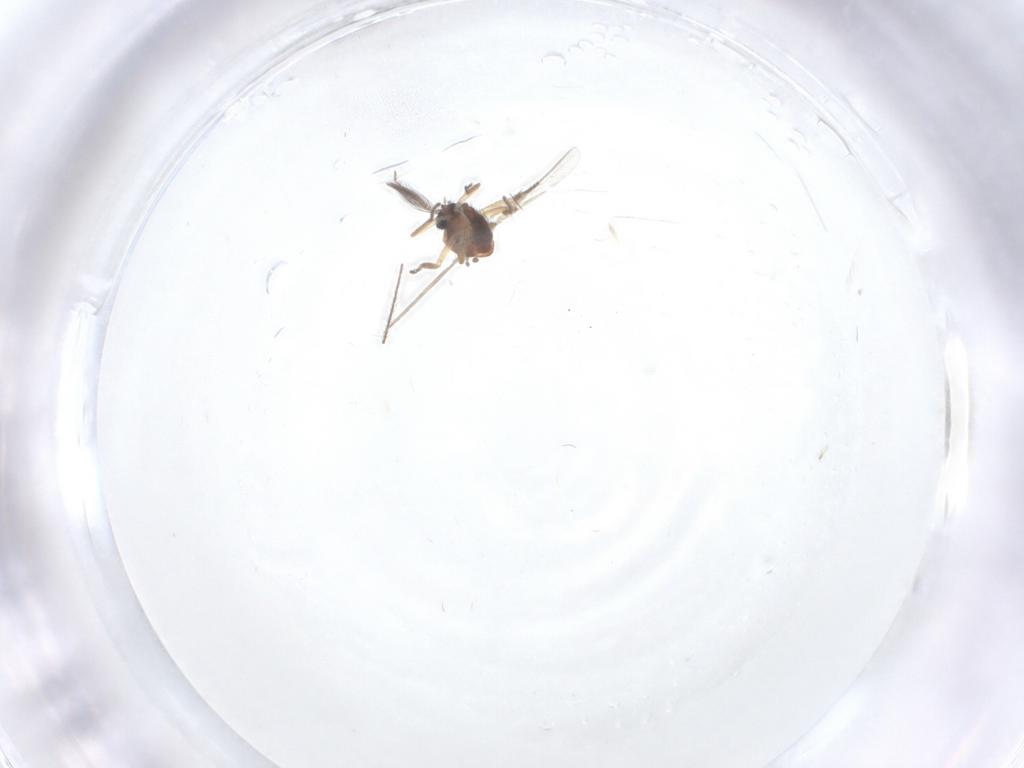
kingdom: Animalia
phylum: Arthropoda
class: Insecta
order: Diptera
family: Ceratopogonidae
